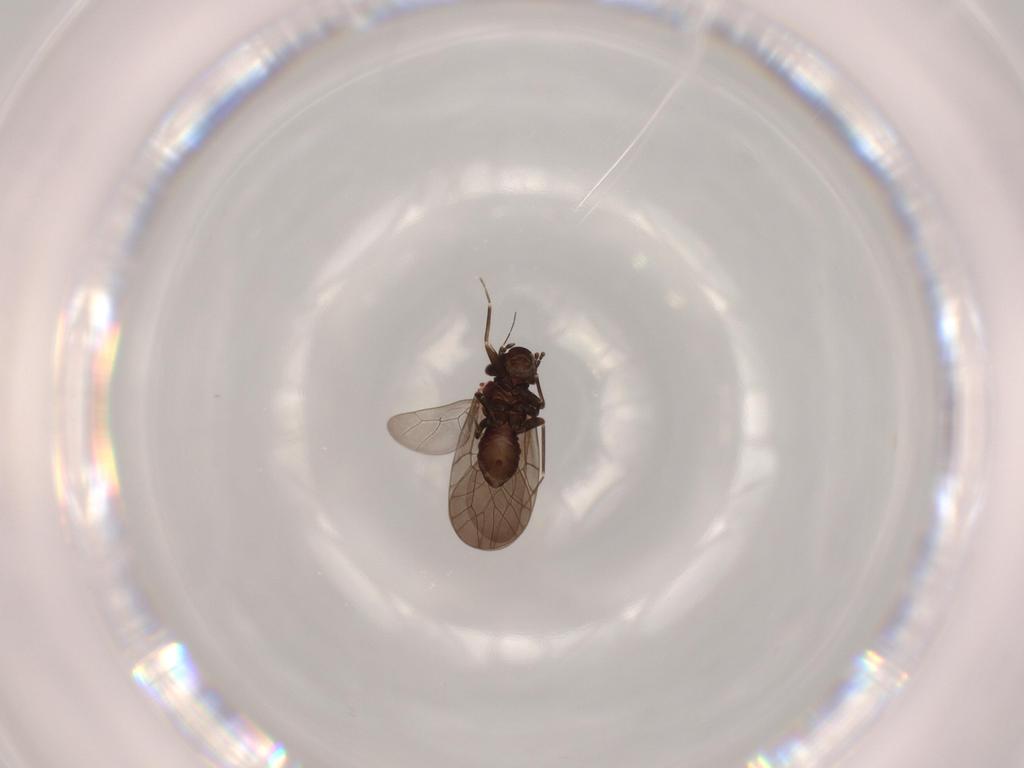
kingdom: Animalia
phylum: Arthropoda
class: Insecta
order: Psocodea
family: Lepidopsocidae
